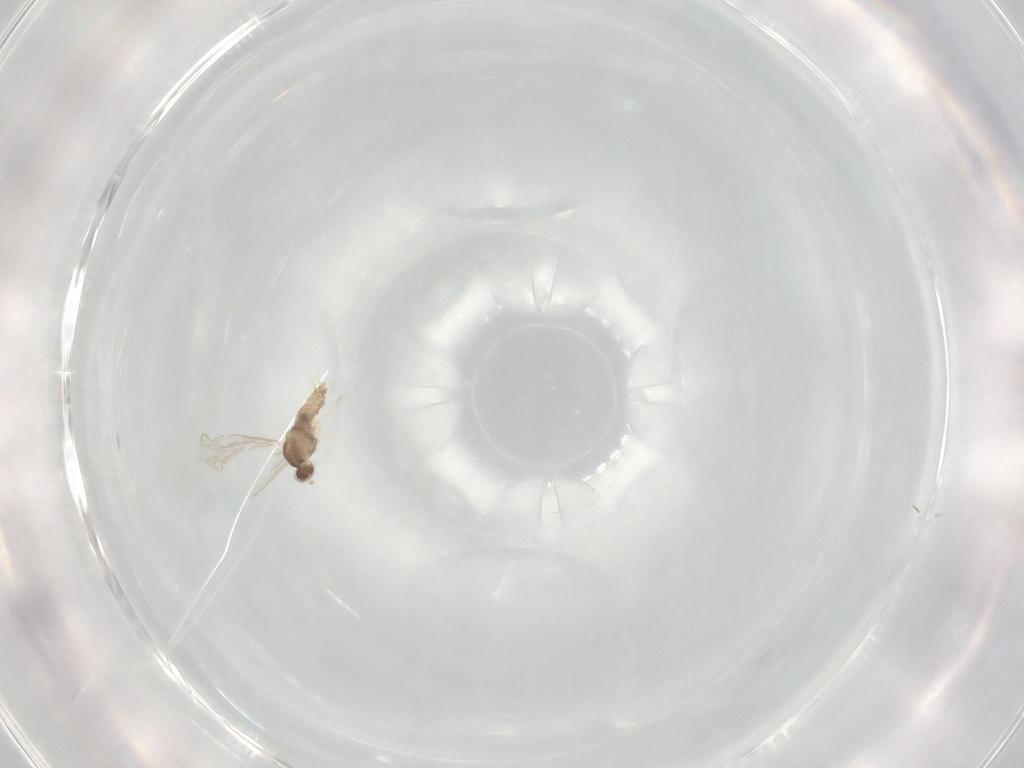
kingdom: Animalia
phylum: Arthropoda
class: Insecta
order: Diptera
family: Cecidomyiidae
